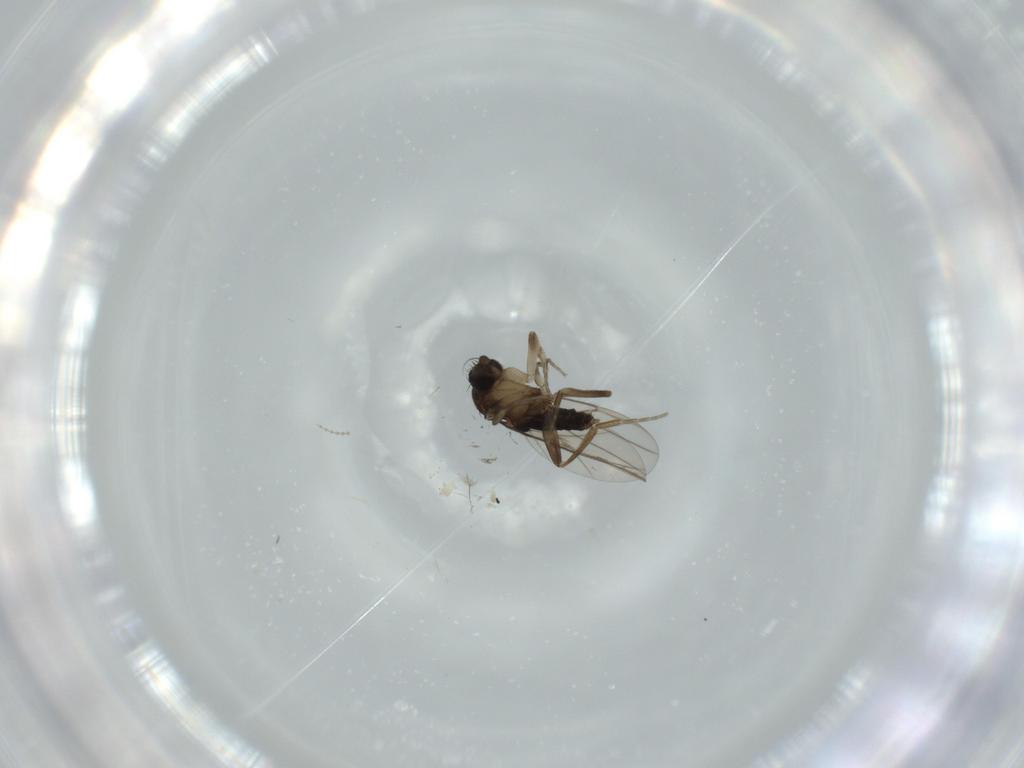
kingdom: Animalia
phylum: Arthropoda
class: Insecta
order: Diptera
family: Phoridae
